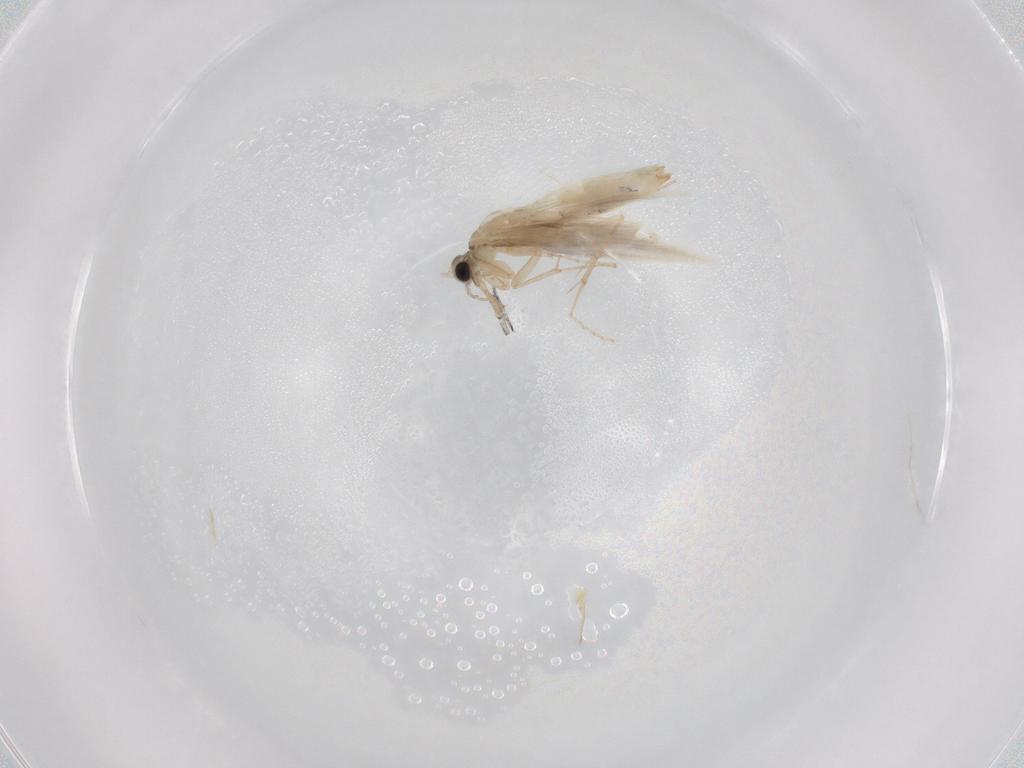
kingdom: Animalia
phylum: Arthropoda
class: Insecta
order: Trichoptera
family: Hydroptilidae
